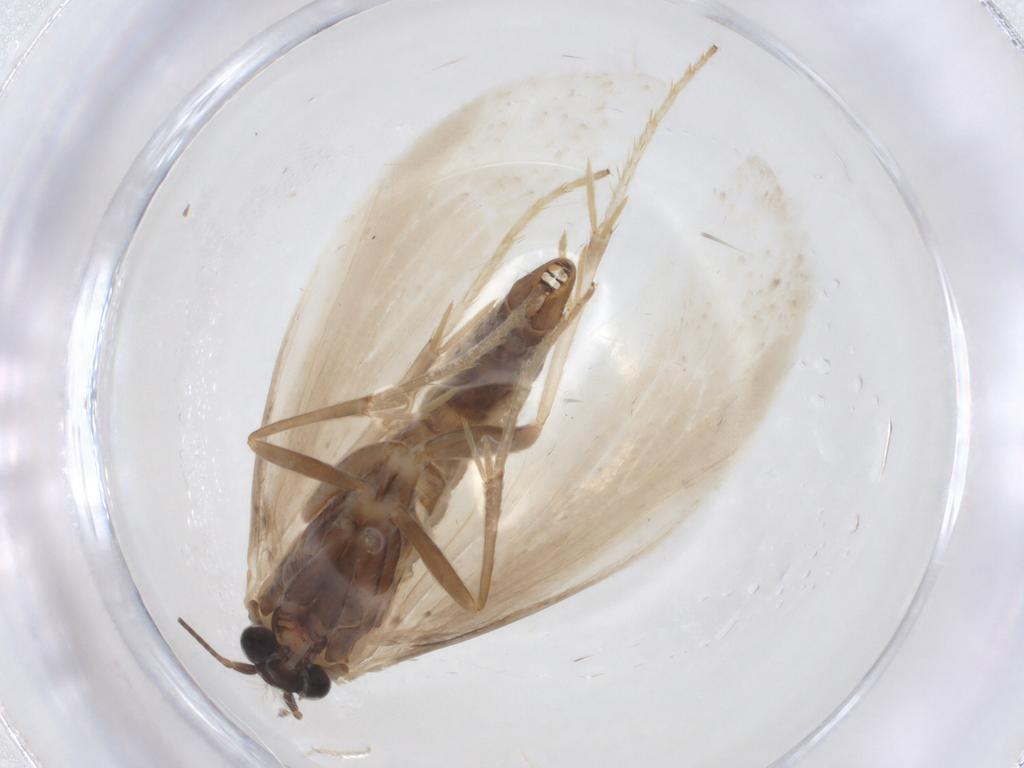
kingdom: Animalia
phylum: Arthropoda
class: Insecta
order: Lepidoptera
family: Tridentaformidae
